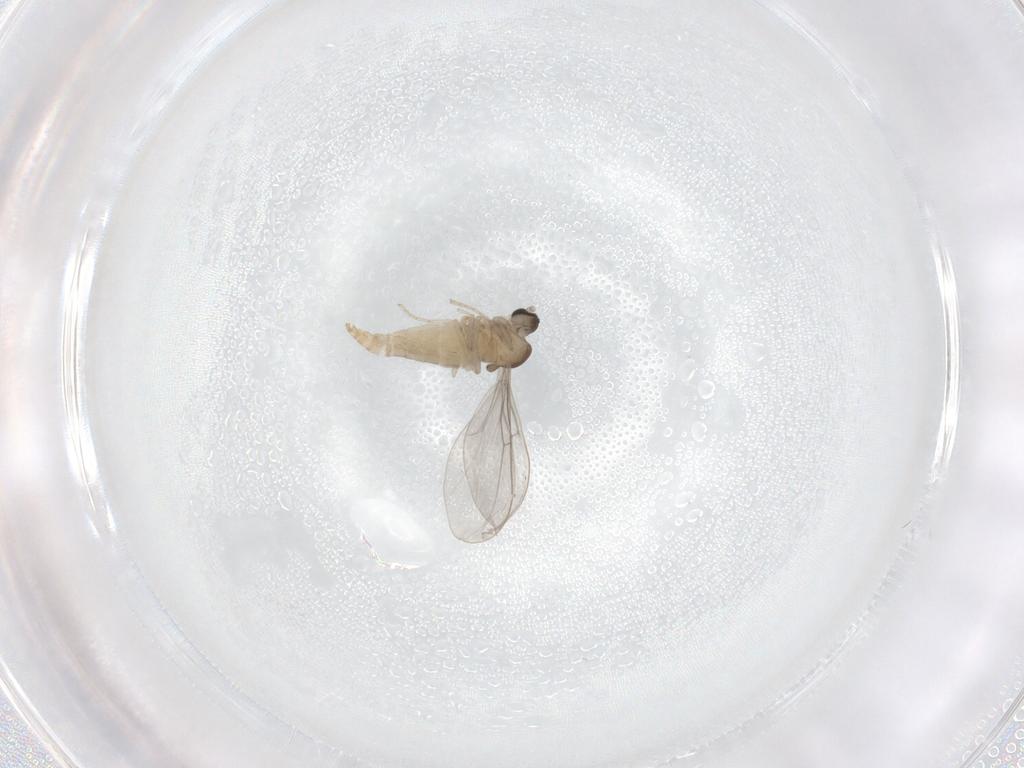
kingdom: Animalia
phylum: Arthropoda
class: Insecta
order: Diptera
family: Cecidomyiidae
